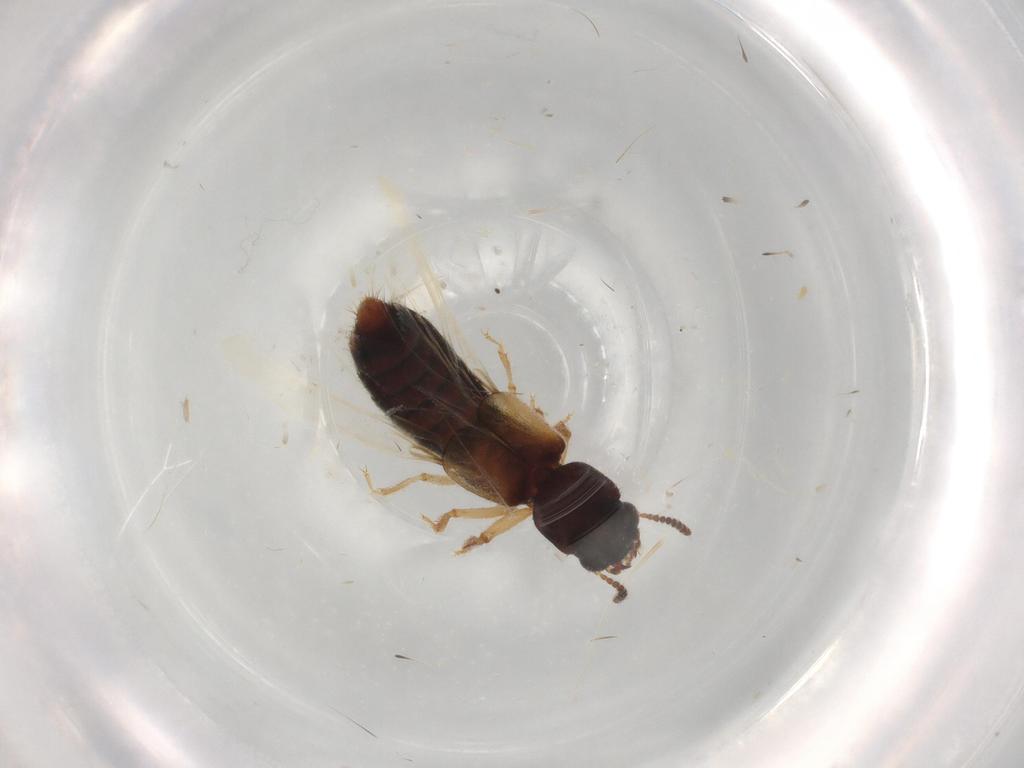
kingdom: Animalia
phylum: Arthropoda
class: Insecta
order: Coleoptera
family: Staphylinidae
